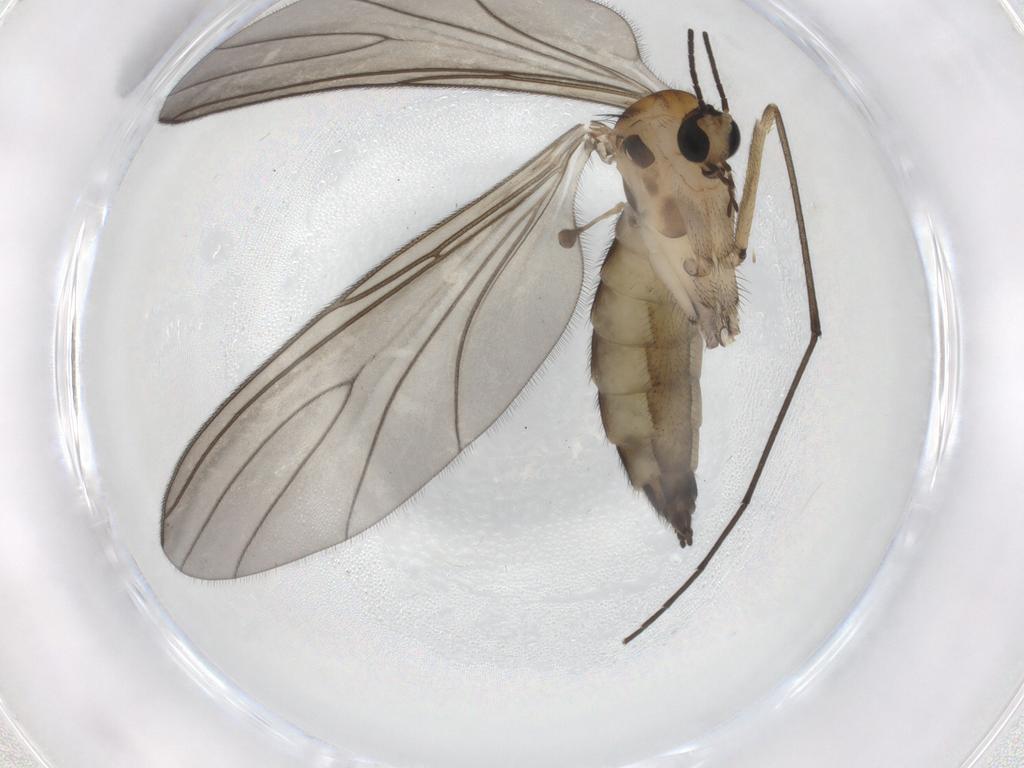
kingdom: Animalia
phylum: Arthropoda
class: Insecta
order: Diptera
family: Sciaridae
